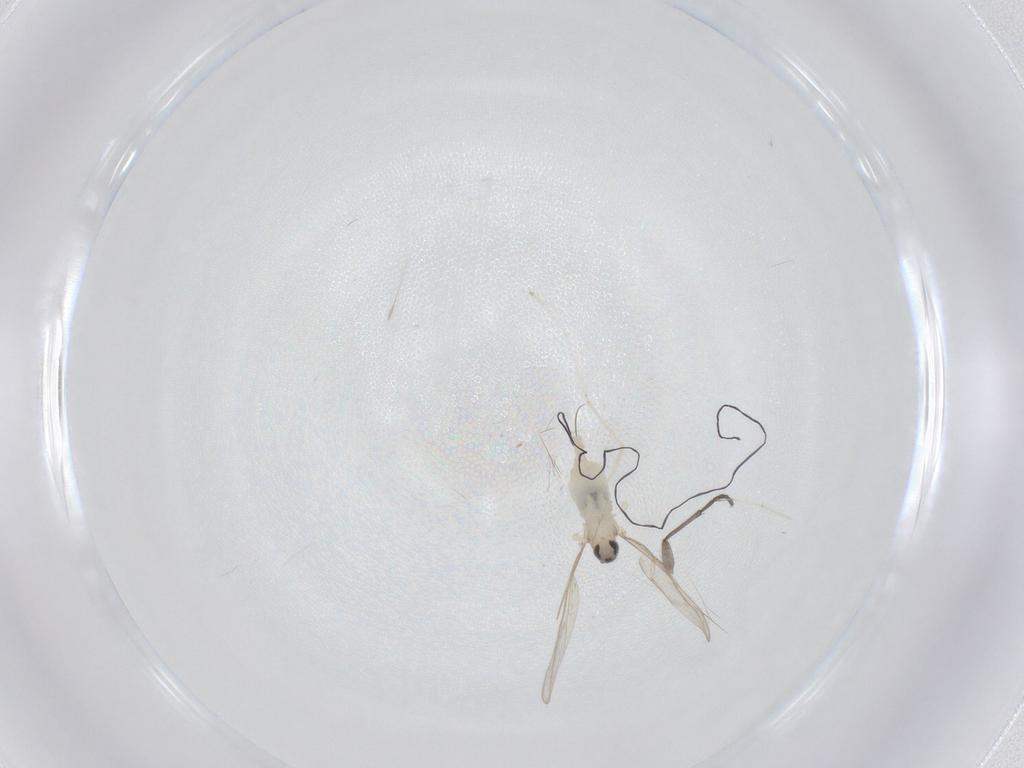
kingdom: Animalia
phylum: Arthropoda
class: Insecta
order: Diptera
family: Sciaridae
